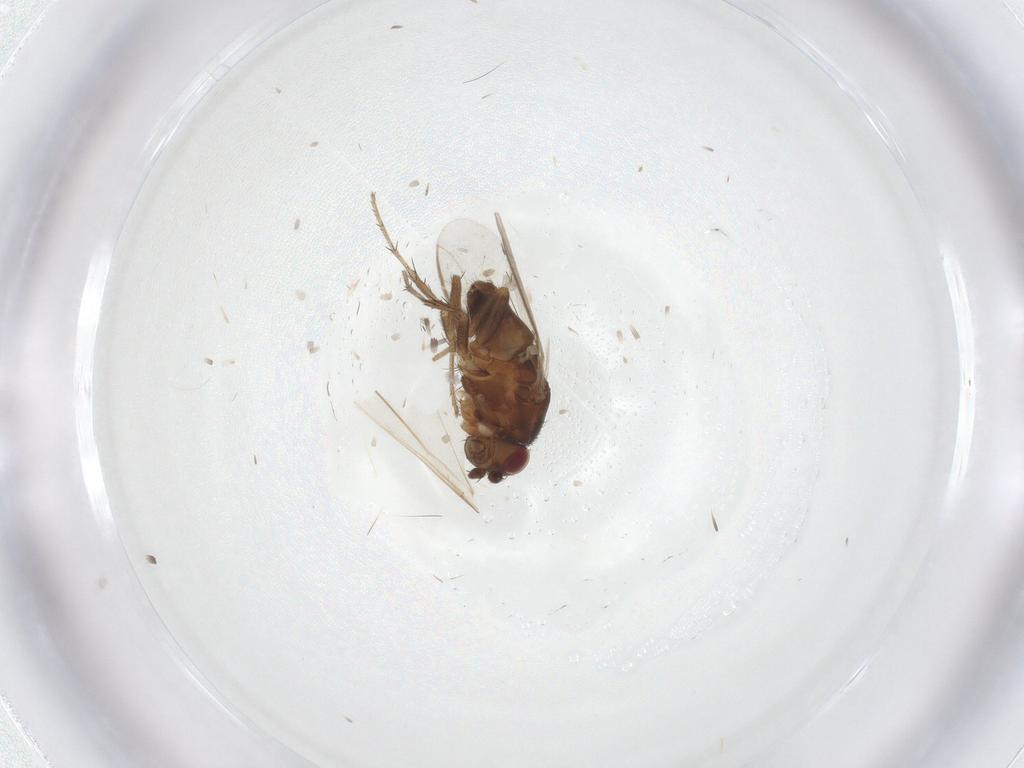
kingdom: Animalia
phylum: Arthropoda
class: Insecta
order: Diptera
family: Sphaeroceridae
